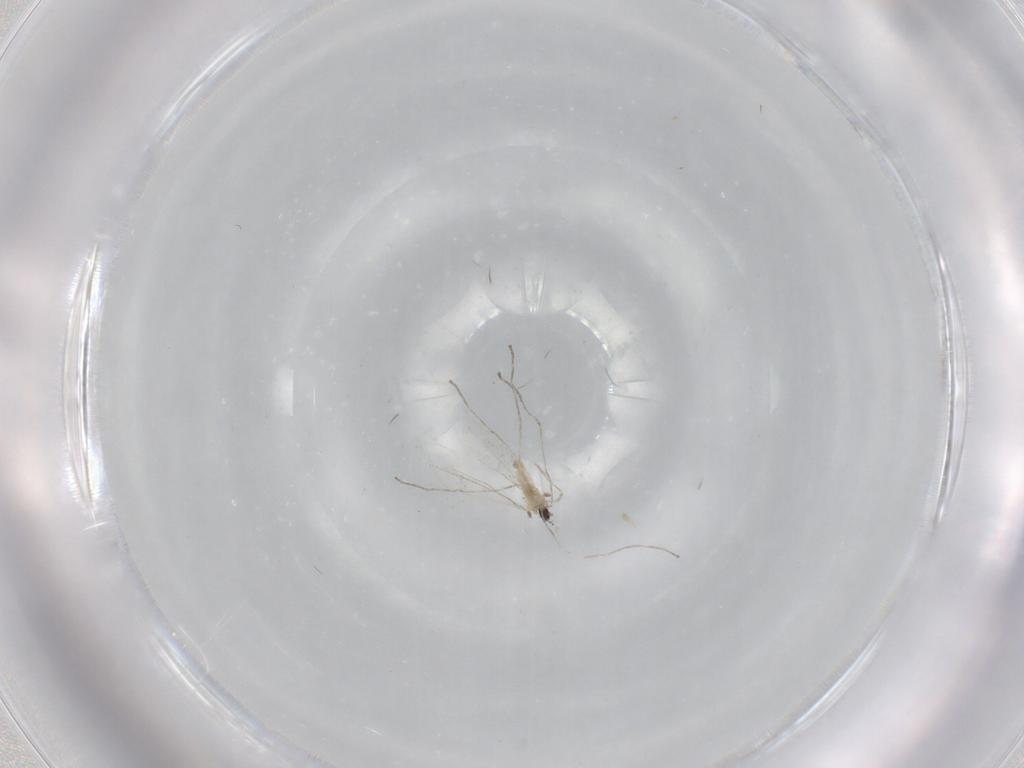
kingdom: Animalia
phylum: Arthropoda
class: Insecta
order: Diptera
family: Cecidomyiidae
